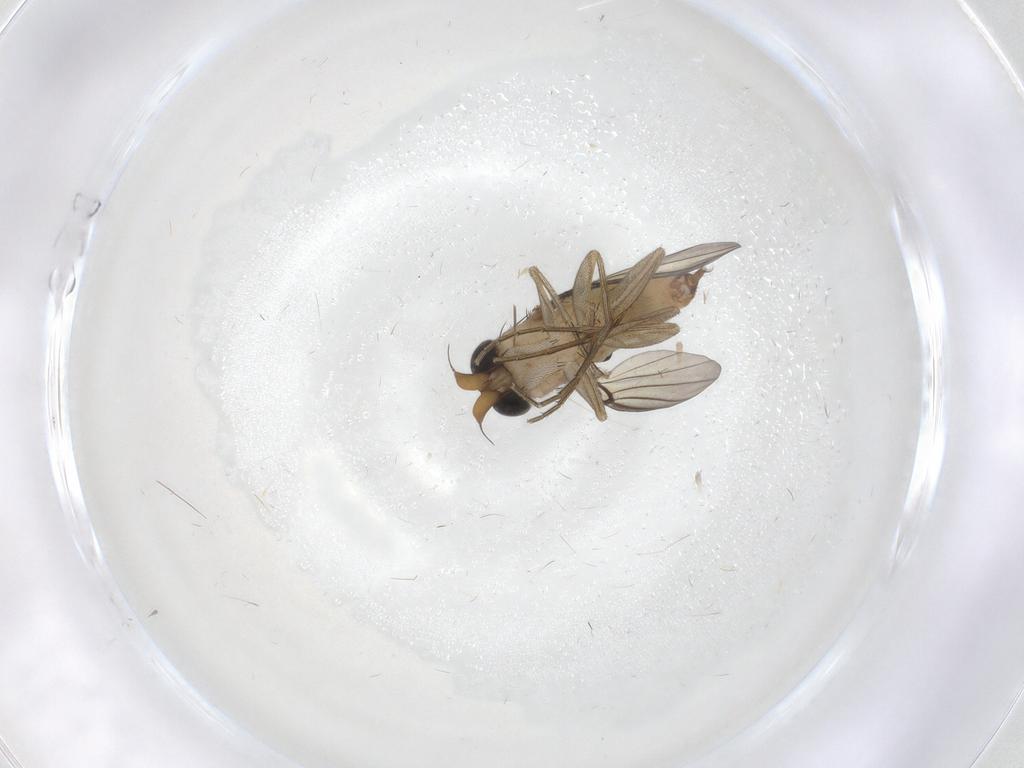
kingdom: Animalia
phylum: Arthropoda
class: Insecta
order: Diptera
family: Phoridae
